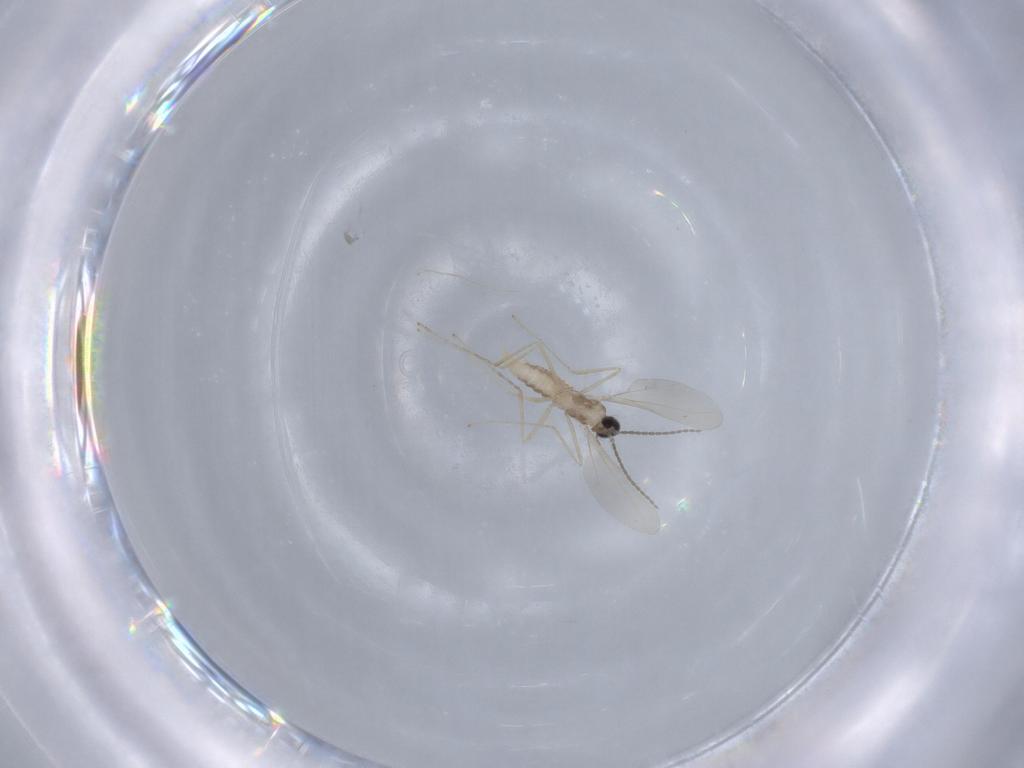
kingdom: Animalia
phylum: Arthropoda
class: Insecta
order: Diptera
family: Cecidomyiidae
